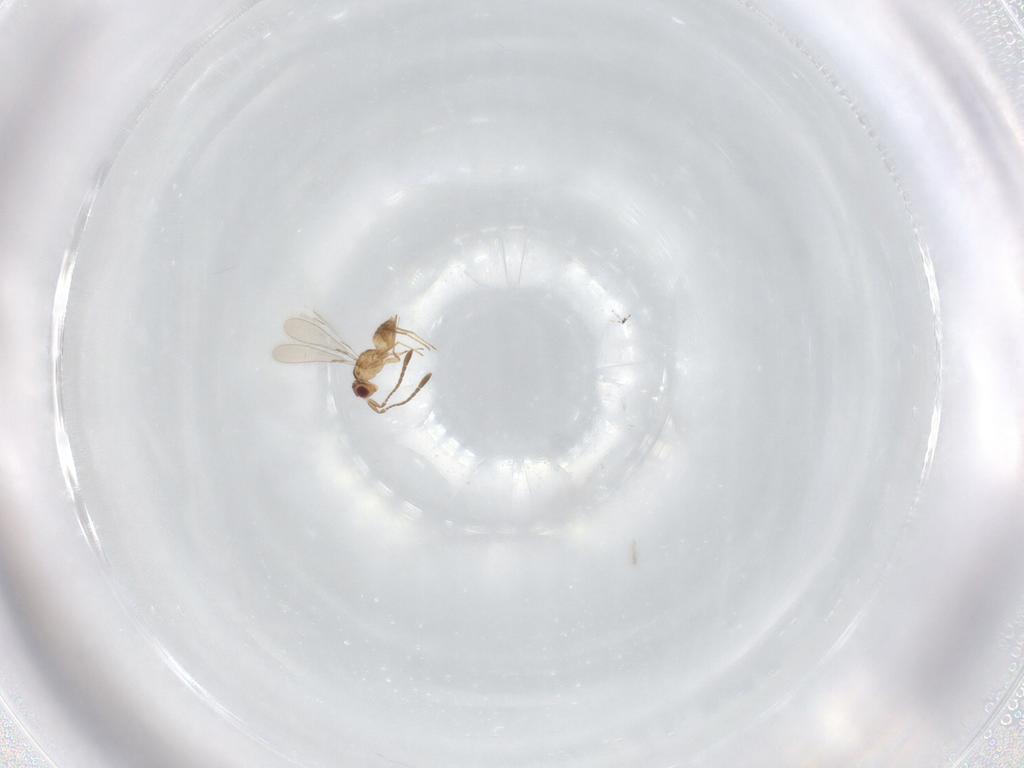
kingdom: Animalia
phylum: Arthropoda
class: Insecta
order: Hymenoptera
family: Mymaridae
